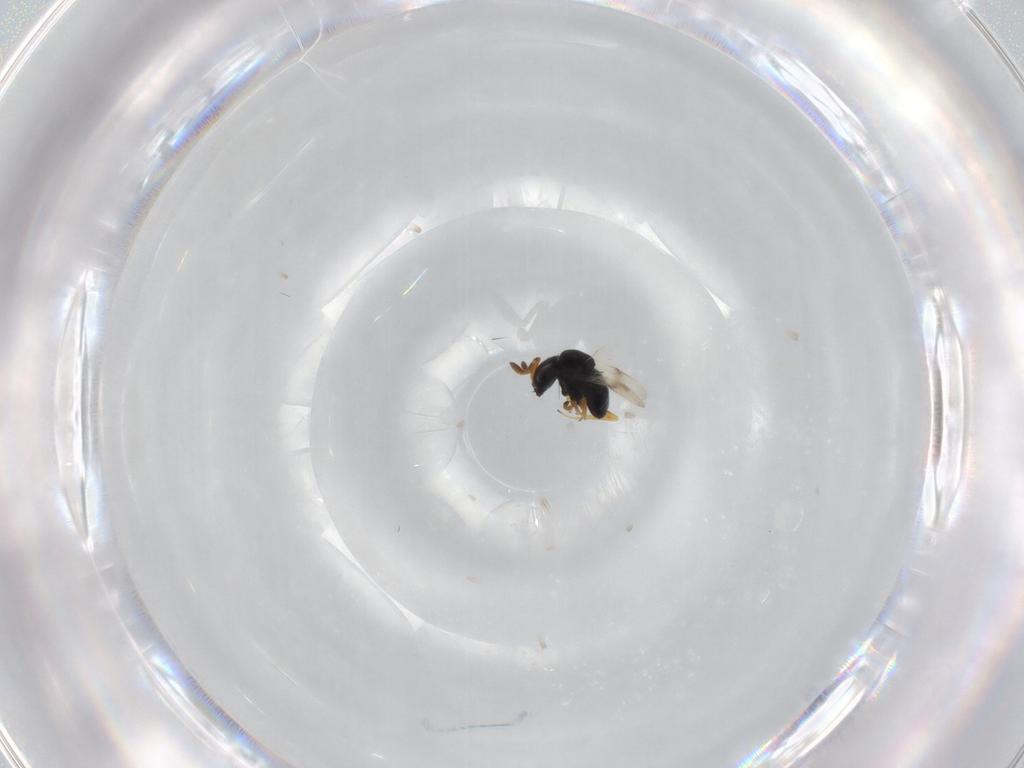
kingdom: Animalia
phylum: Arthropoda
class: Insecta
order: Hymenoptera
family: Scelionidae
